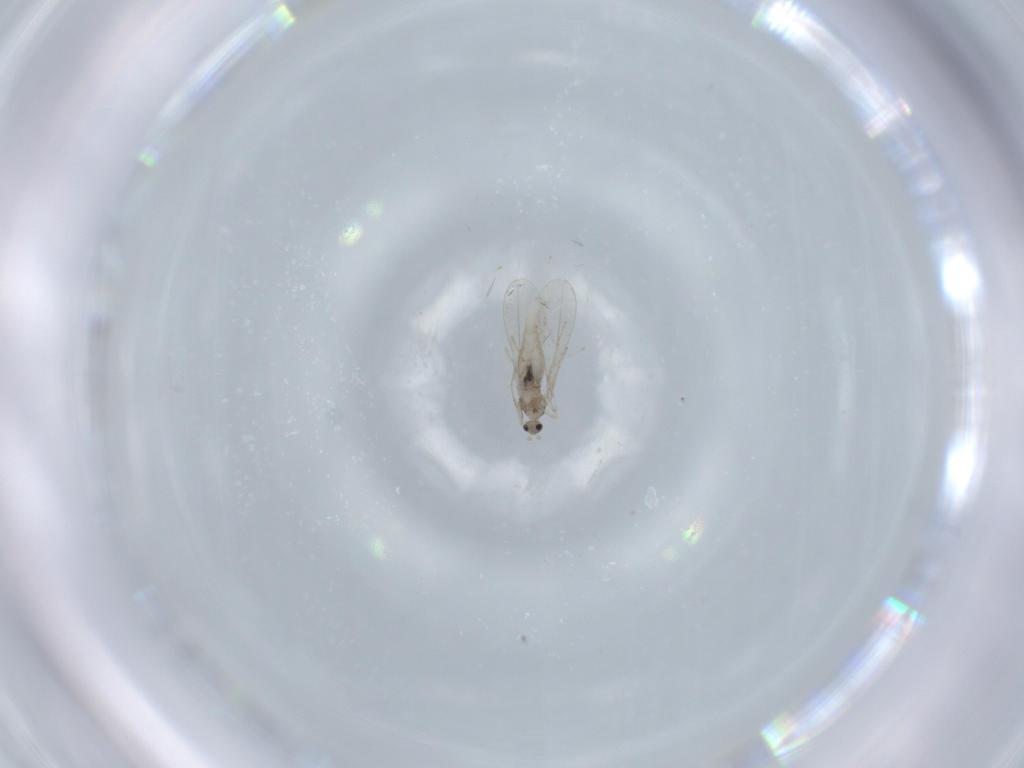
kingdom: Animalia
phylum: Arthropoda
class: Insecta
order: Diptera
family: Cecidomyiidae
